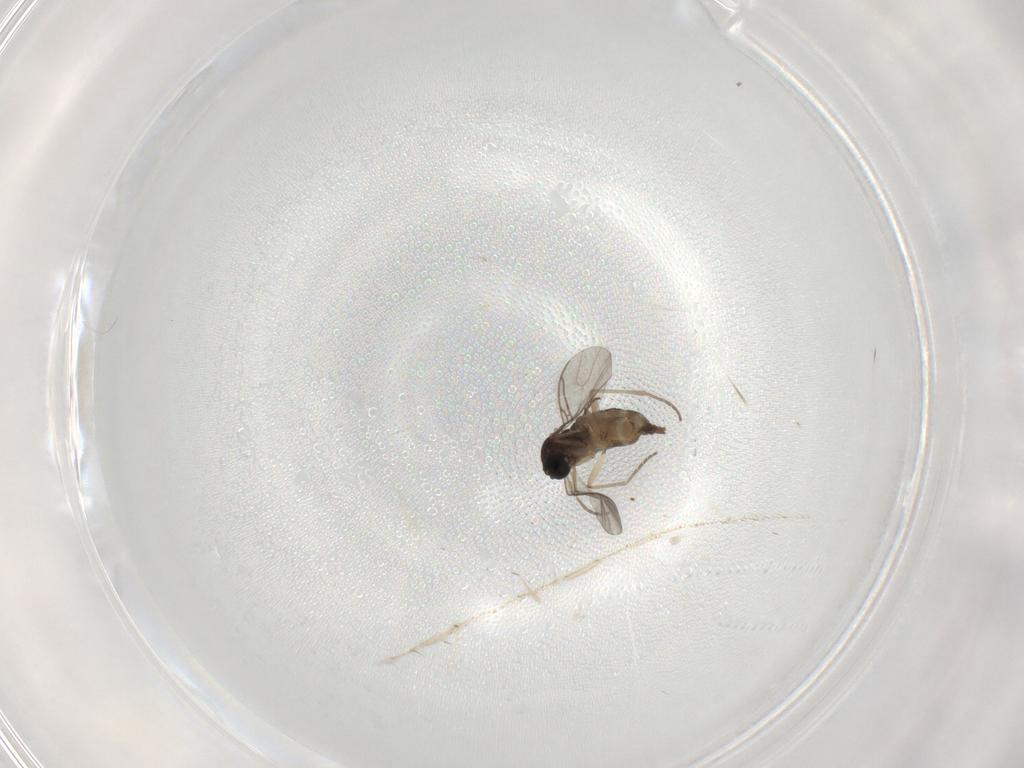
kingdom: Animalia
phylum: Arthropoda
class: Insecta
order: Diptera
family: Sciaridae
